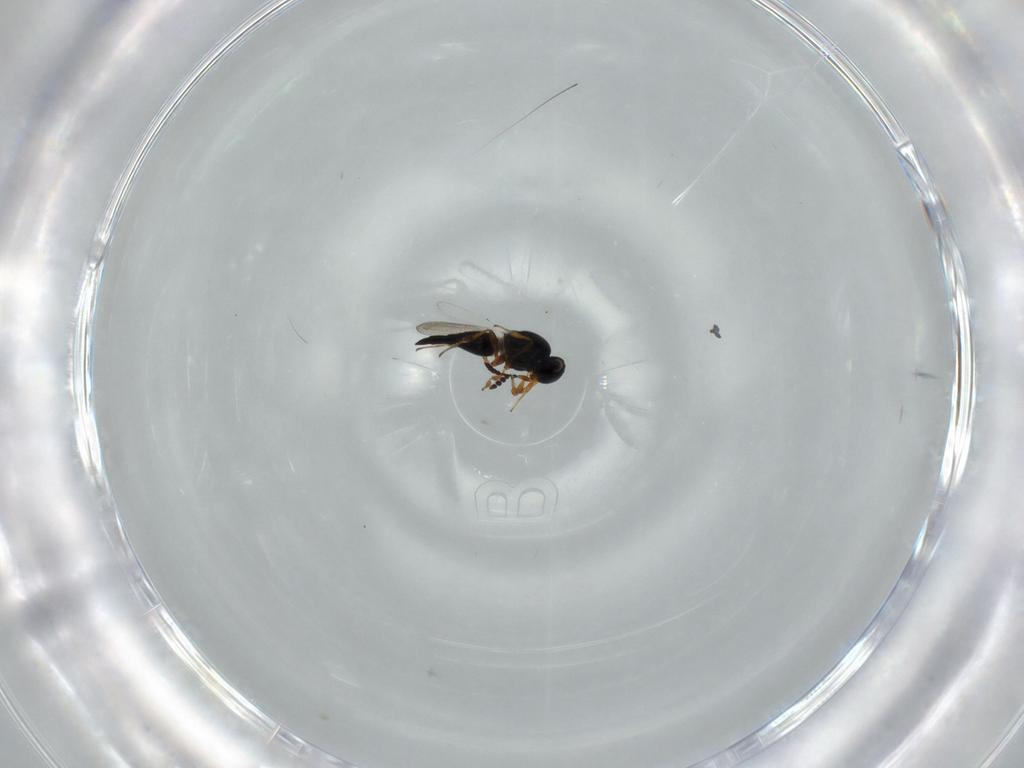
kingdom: Animalia
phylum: Arthropoda
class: Insecta
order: Hymenoptera
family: Platygastridae
